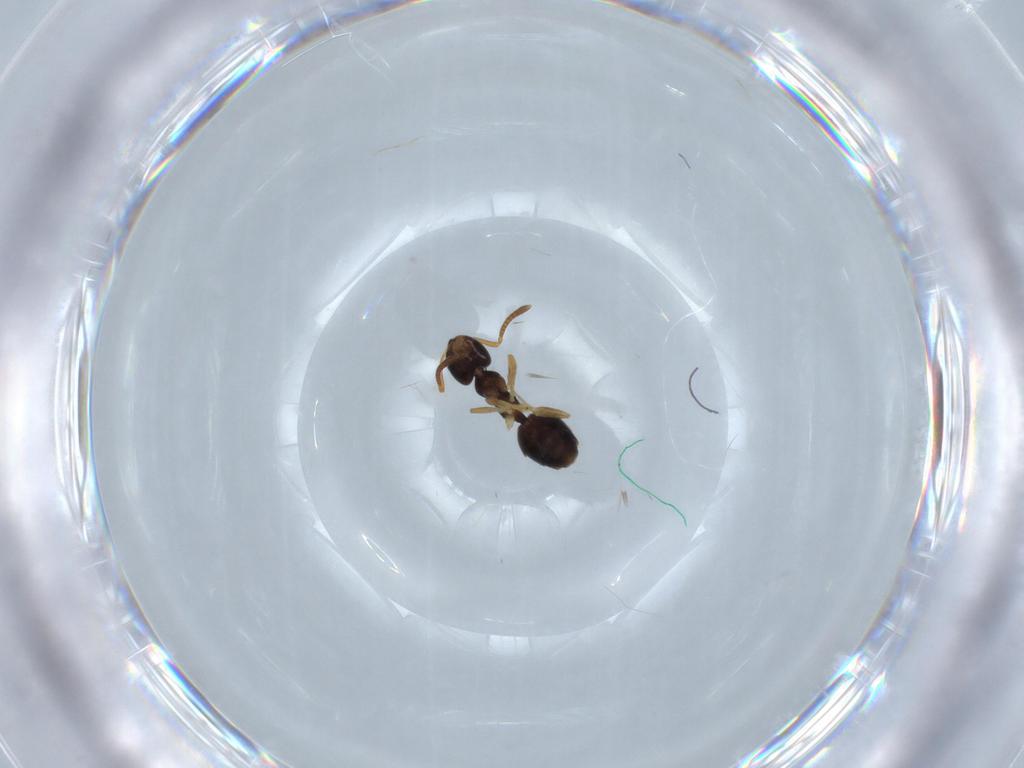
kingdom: Animalia
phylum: Arthropoda
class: Insecta
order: Hymenoptera
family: Formicidae
